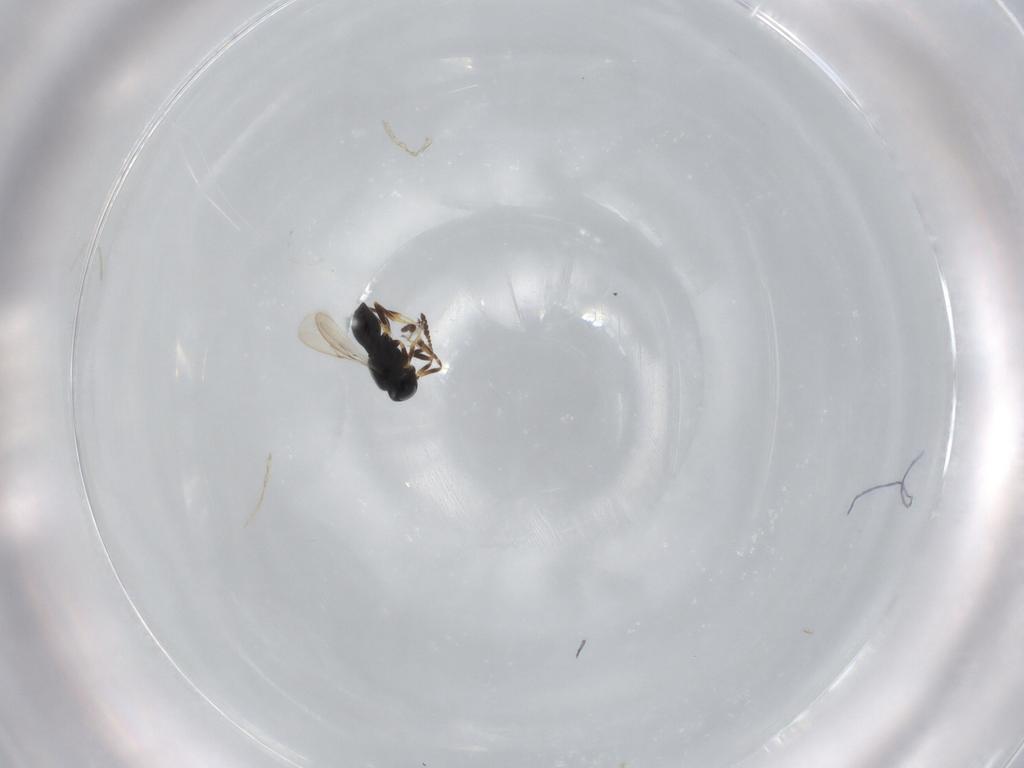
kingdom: Animalia
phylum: Arthropoda
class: Insecta
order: Hymenoptera
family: Scelionidae
